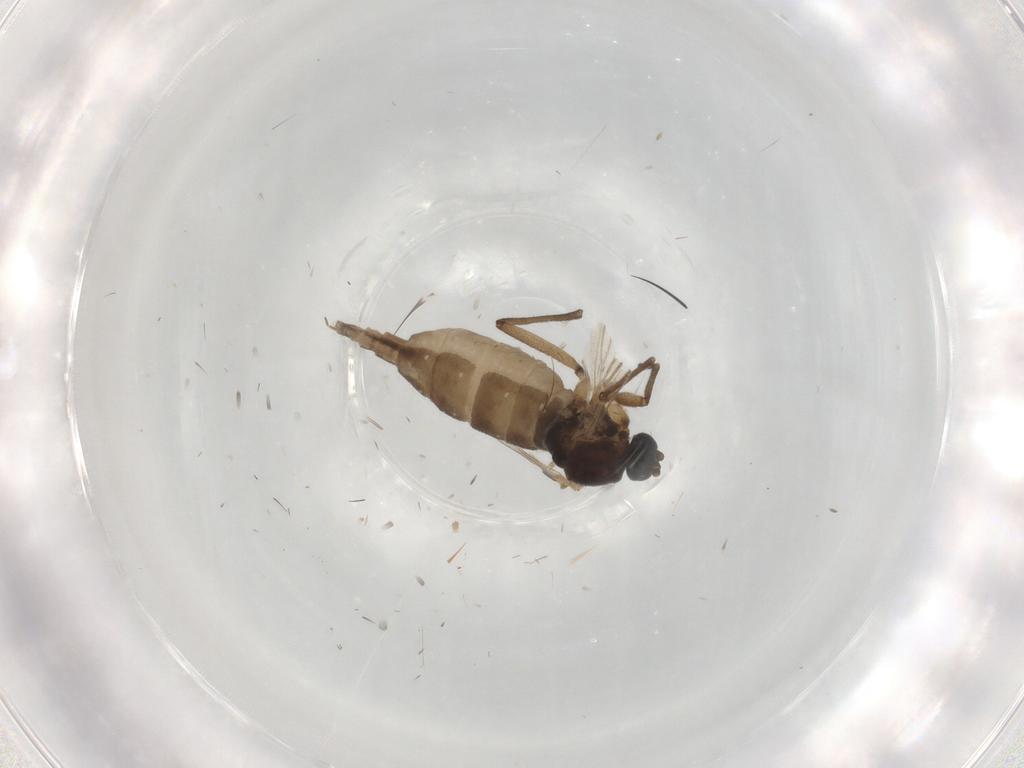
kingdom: Animalia
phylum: Arthropoda
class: Insecta
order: Diptera
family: Sciaridae
